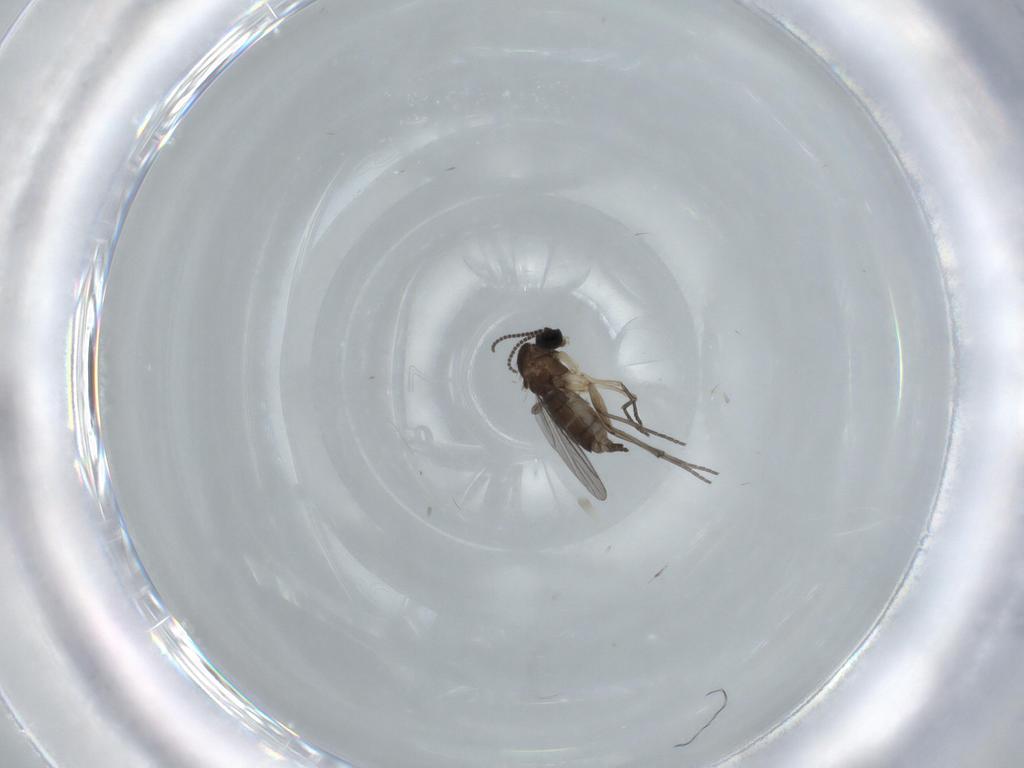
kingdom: Animalia
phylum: Arthropoda
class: Insecta
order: Diptera
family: Sciaridae
